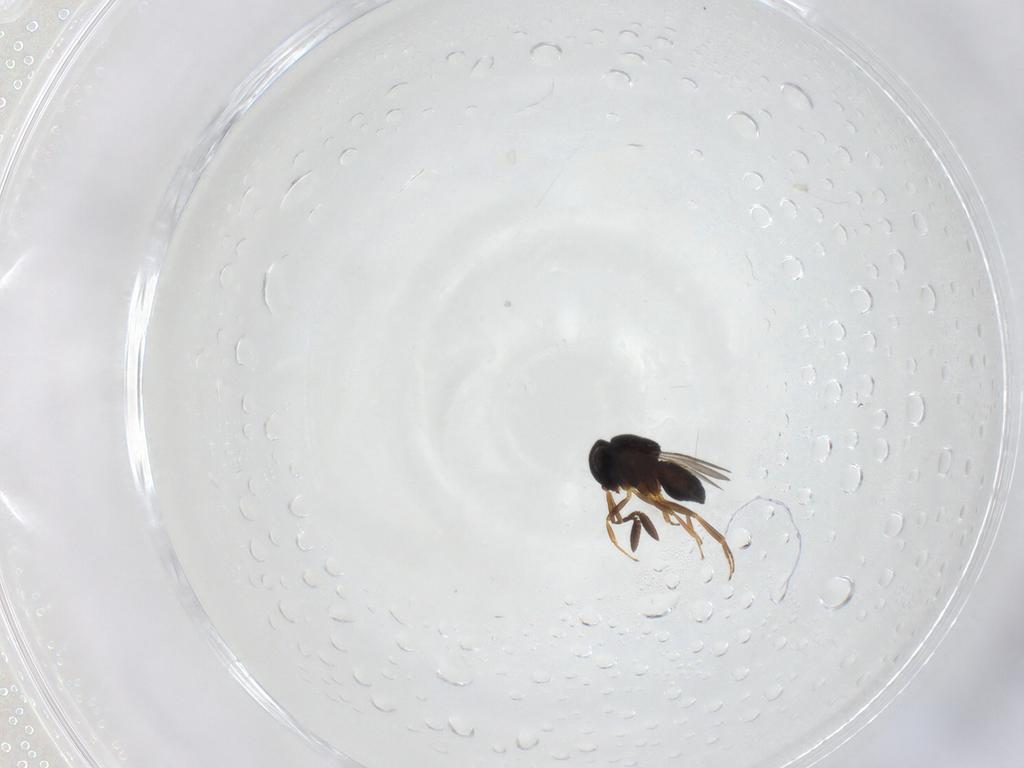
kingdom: Animalia
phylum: Arthropoda
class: Insecta
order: Coleoptera
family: Curculionidae
